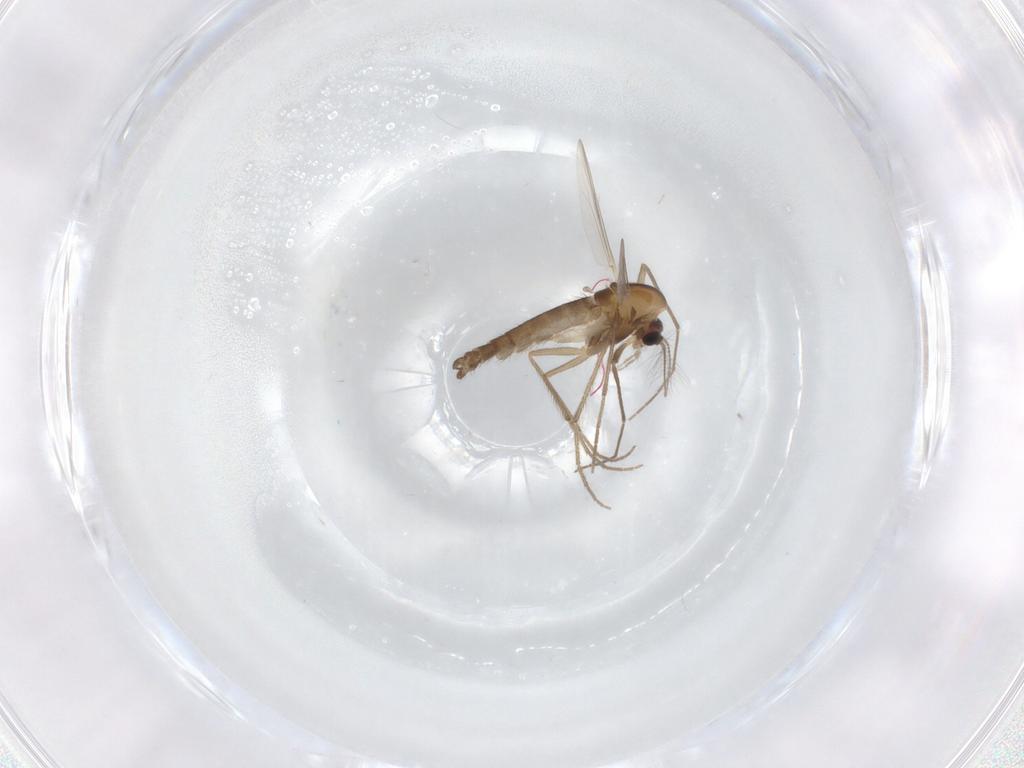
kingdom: Animalia
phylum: Arthropoda
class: Insecta
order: Diptera
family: Chironomidae
